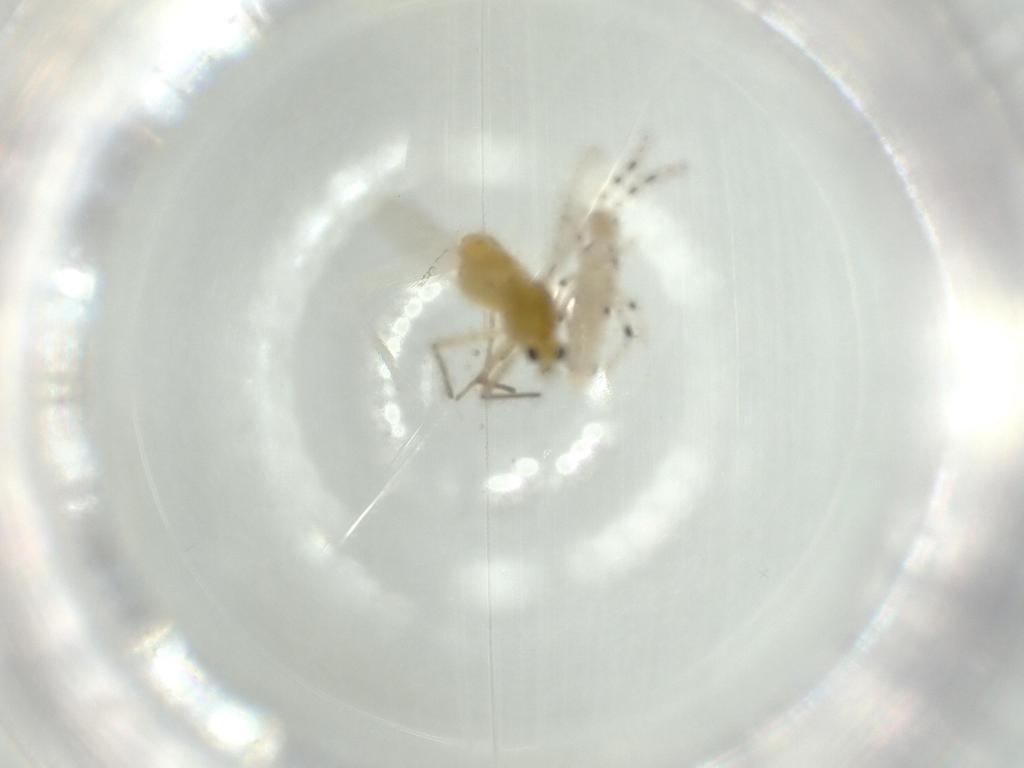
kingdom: Animalia
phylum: Arthropoda
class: Collembola
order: Entomobryomorpha
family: Entomobryidae
